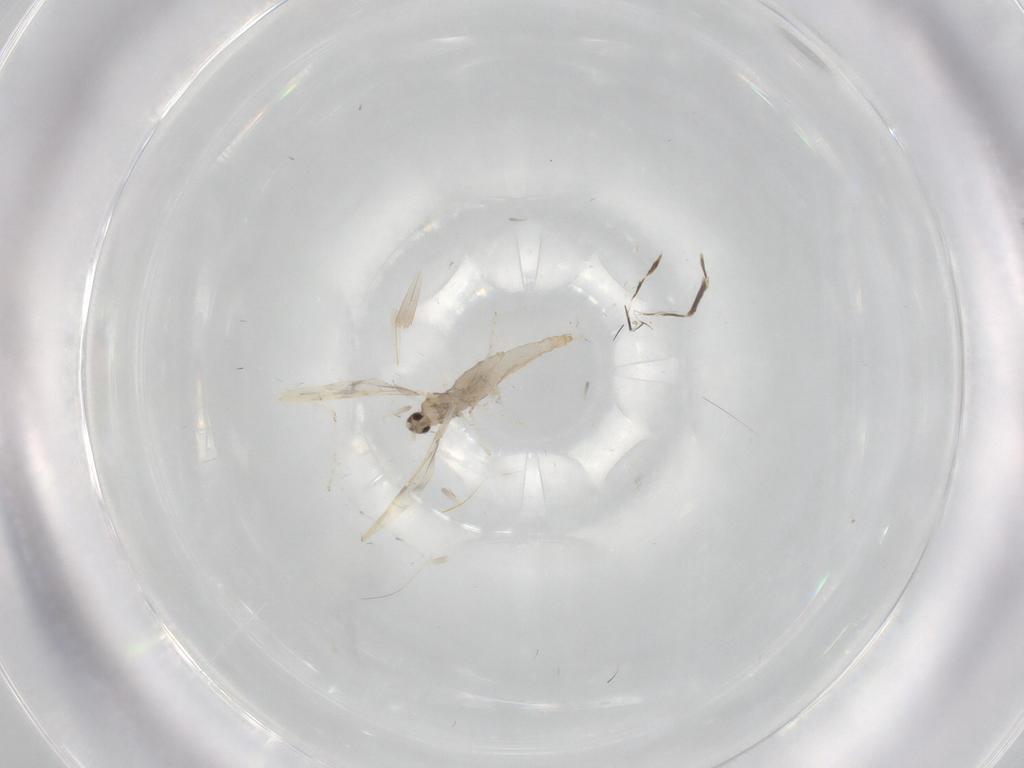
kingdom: Animalia
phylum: Arthropoda
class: Insecta
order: Diptera
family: Cecidomyiidae
